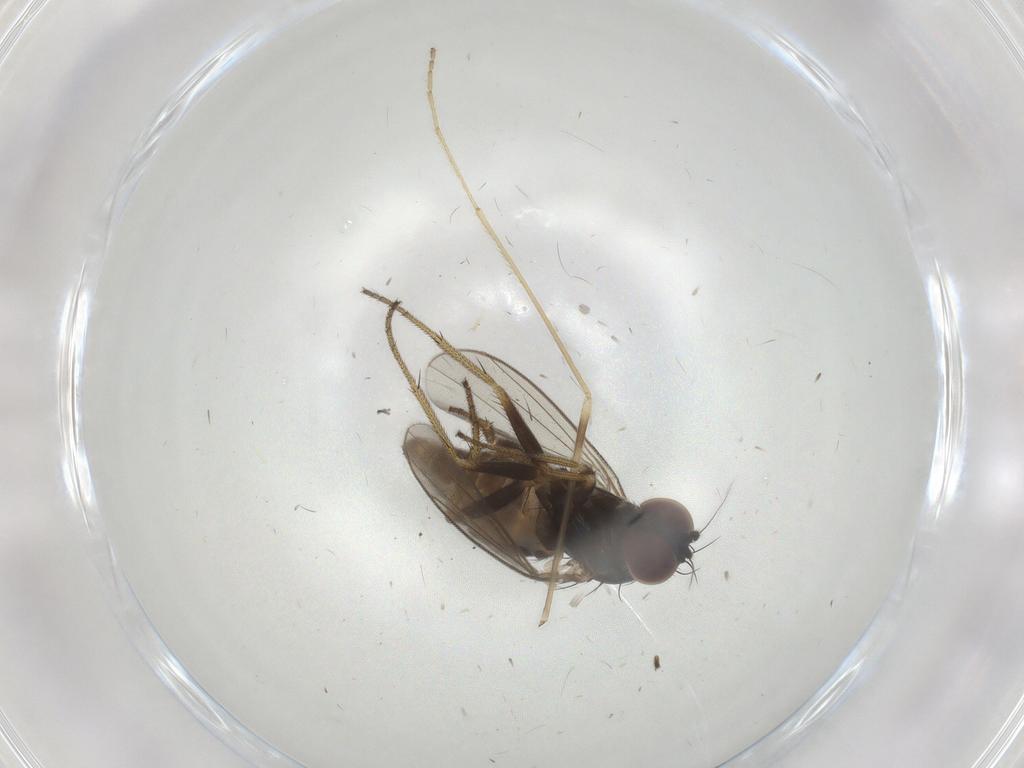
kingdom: Animalia
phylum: Arthropoda
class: Insecta
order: Diptera
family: Limoniidae
